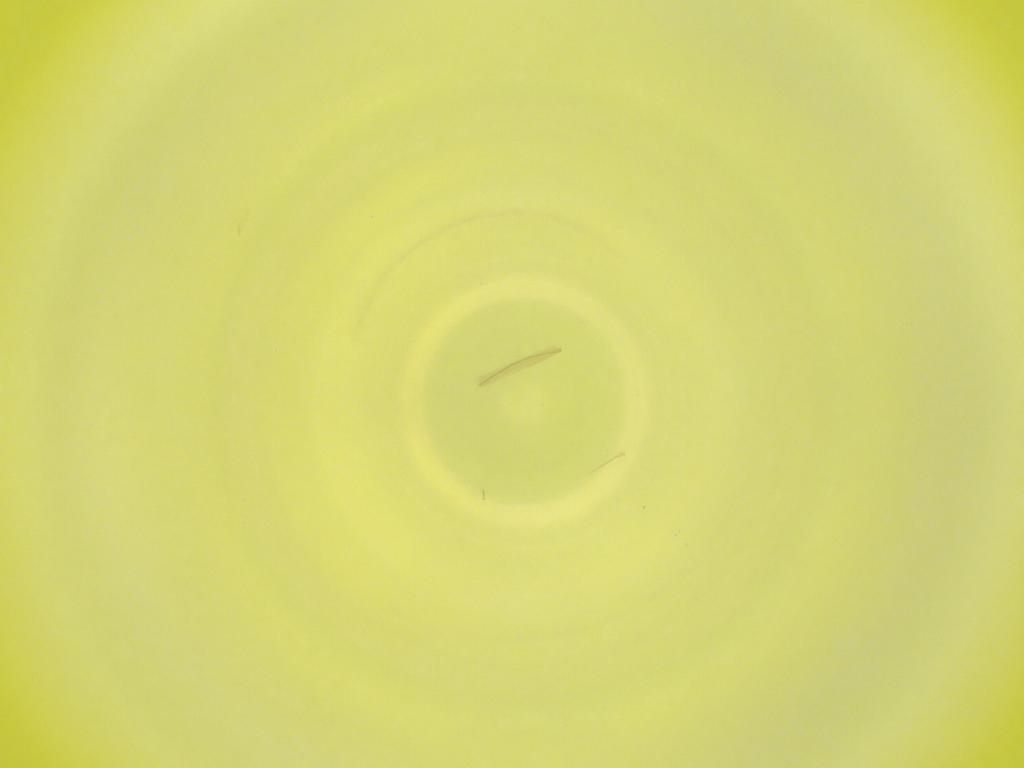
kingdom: Animalia
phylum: Arthropoda
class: Insecta
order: Diptera
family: Cecidomyiidae
